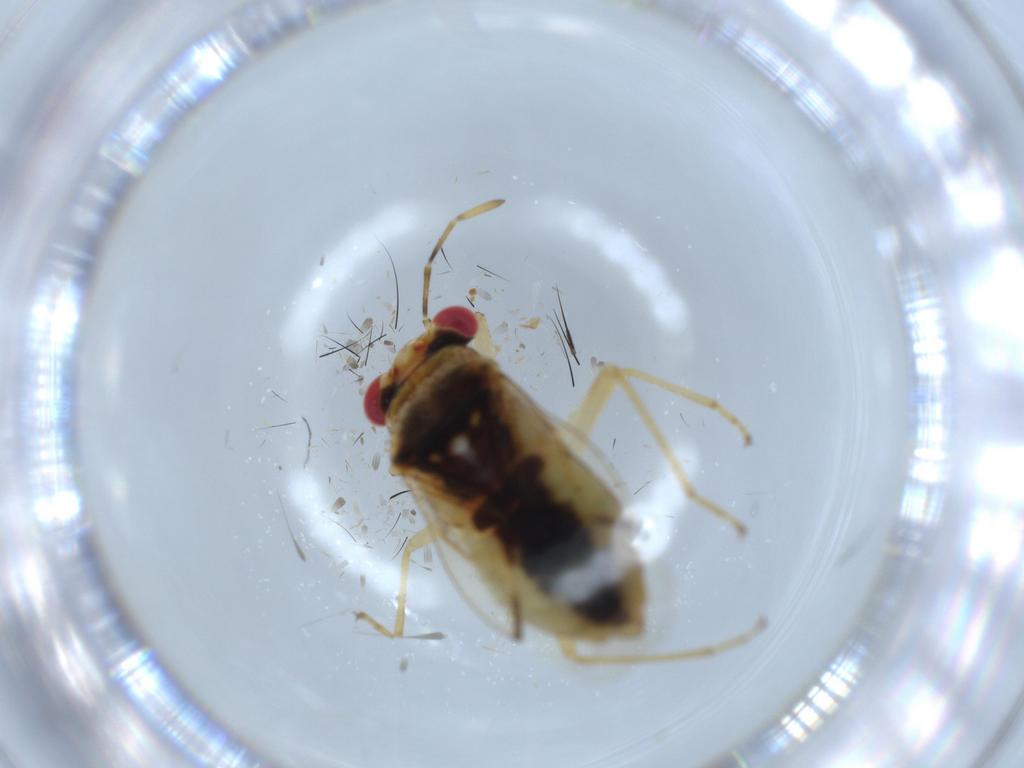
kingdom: Animalia
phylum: Arthropoda
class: Insecta
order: Hemiptera
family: Geocoridae
